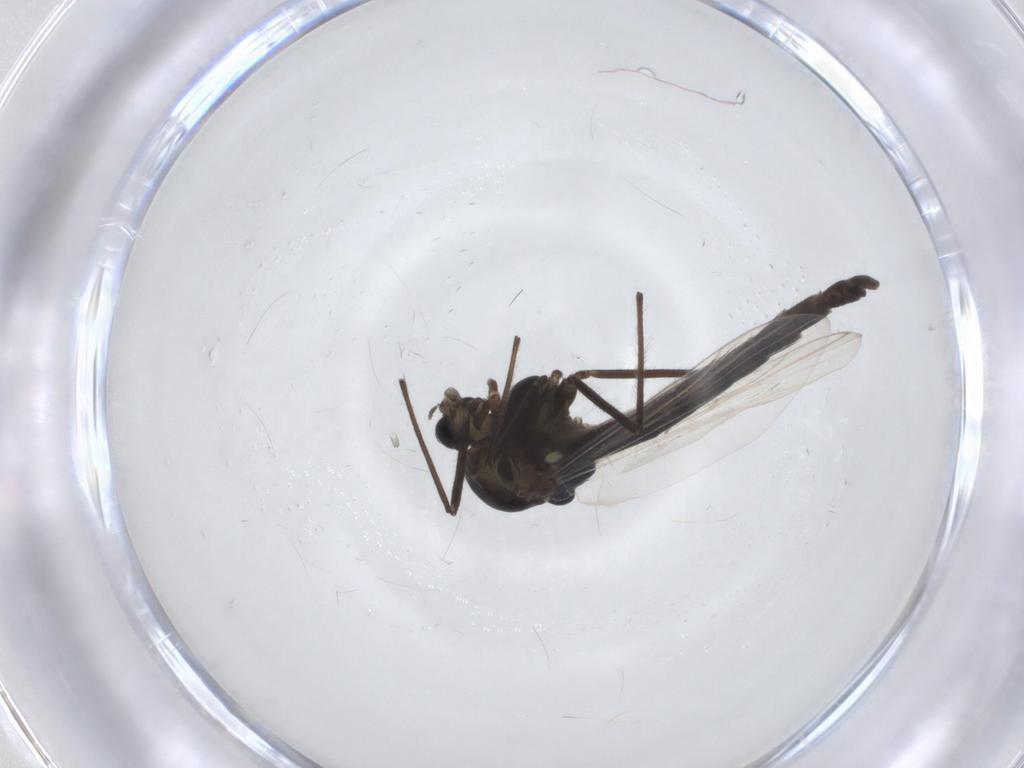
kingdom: Animalia
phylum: Arthropoda
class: Insecta
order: Diptera
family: Chironomidae
